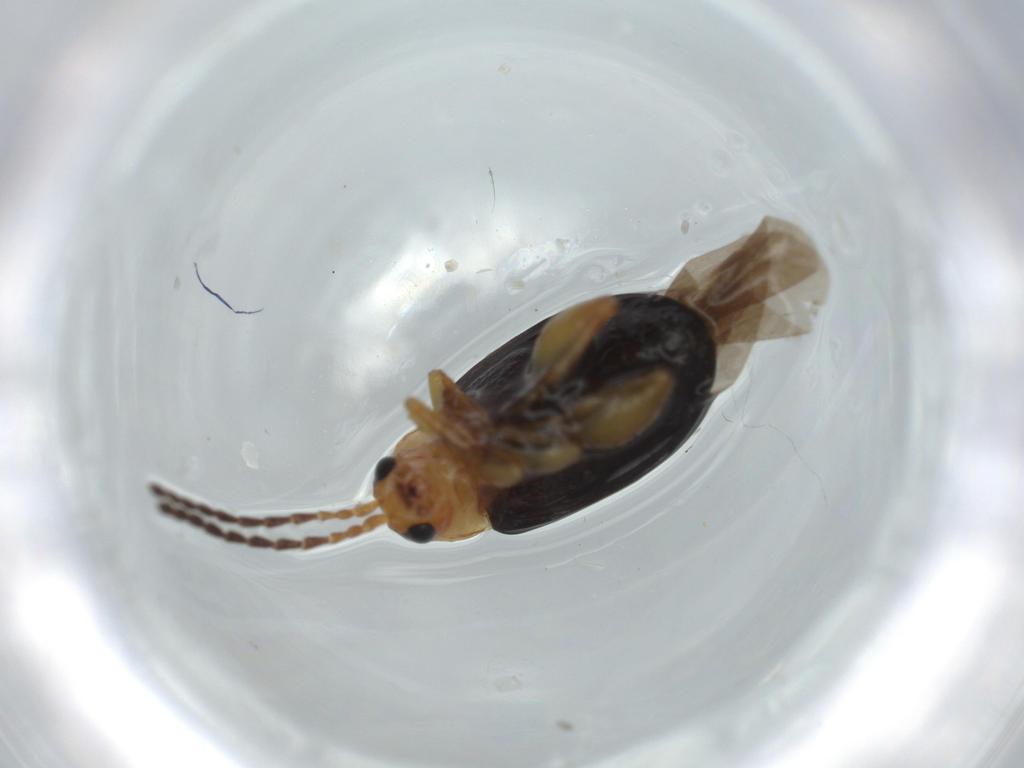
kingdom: Animalia
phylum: Arthropoda
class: Insecta
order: Coleoptera
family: Chrysomelidae
